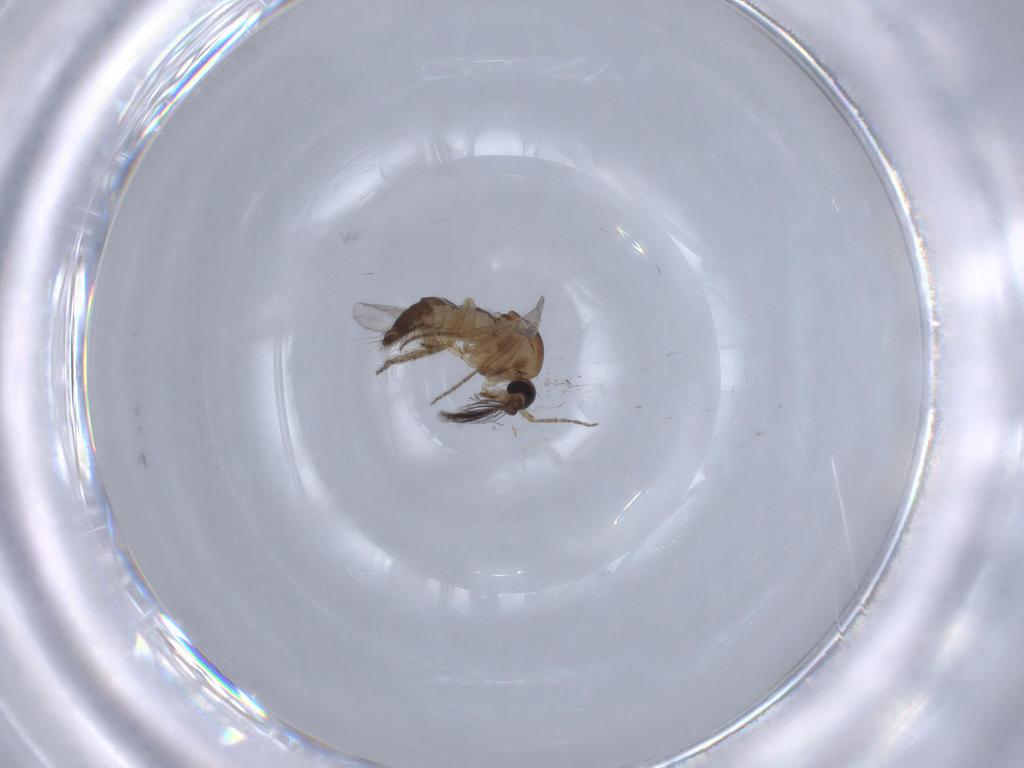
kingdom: Animalia
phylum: Arthropoda
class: Insecta
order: Diptera
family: Ceratopogonidae
